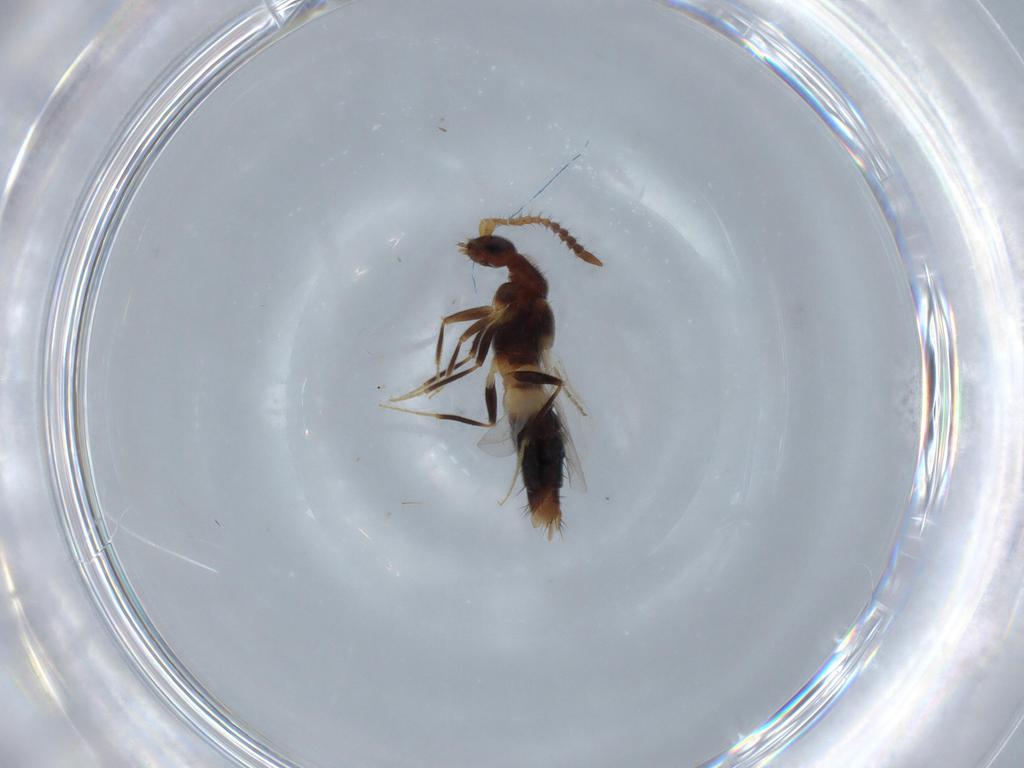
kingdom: Animalia
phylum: Arthropoda
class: Insecta
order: Coleoptera
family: Staphylinidae
